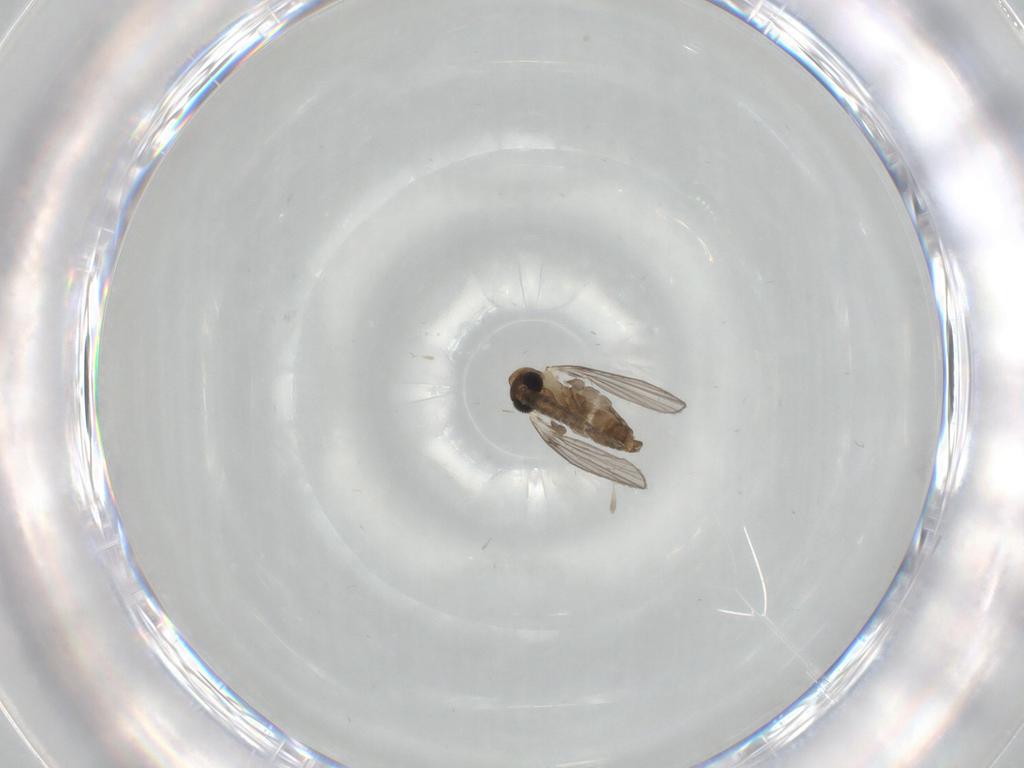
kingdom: Animalia
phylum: Arthropoda
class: Insecta
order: Diptera
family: Psychodidae
